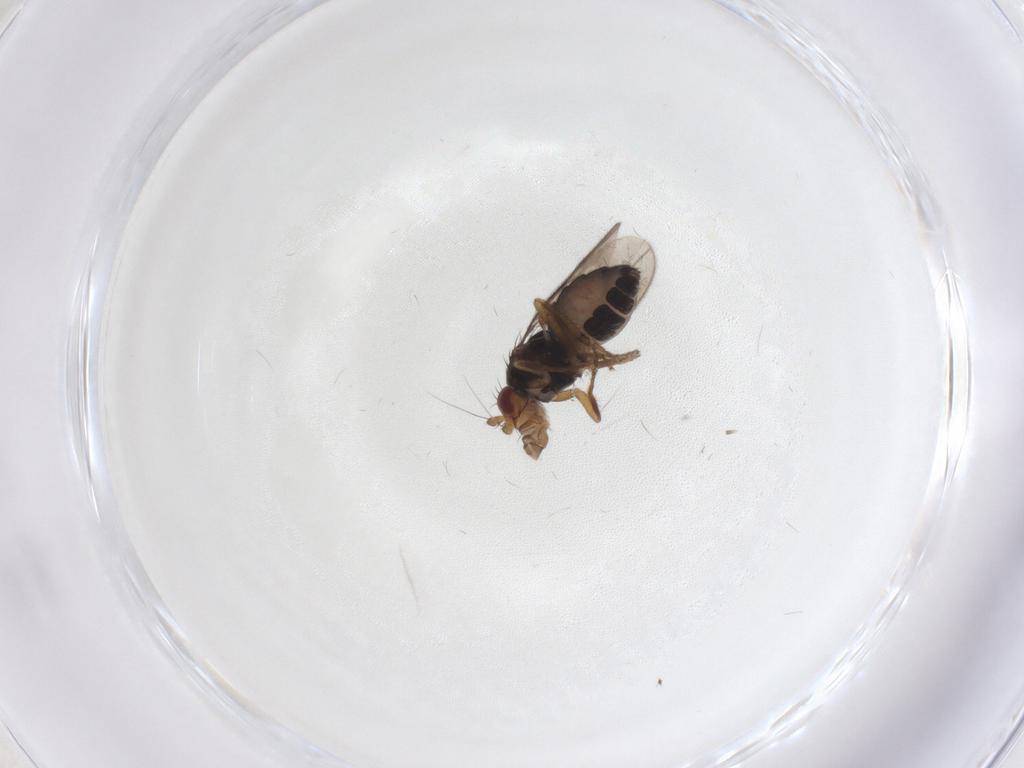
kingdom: Animalia
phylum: Arthropoda
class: Insecta
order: Diptera
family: Sphaeroceridae
